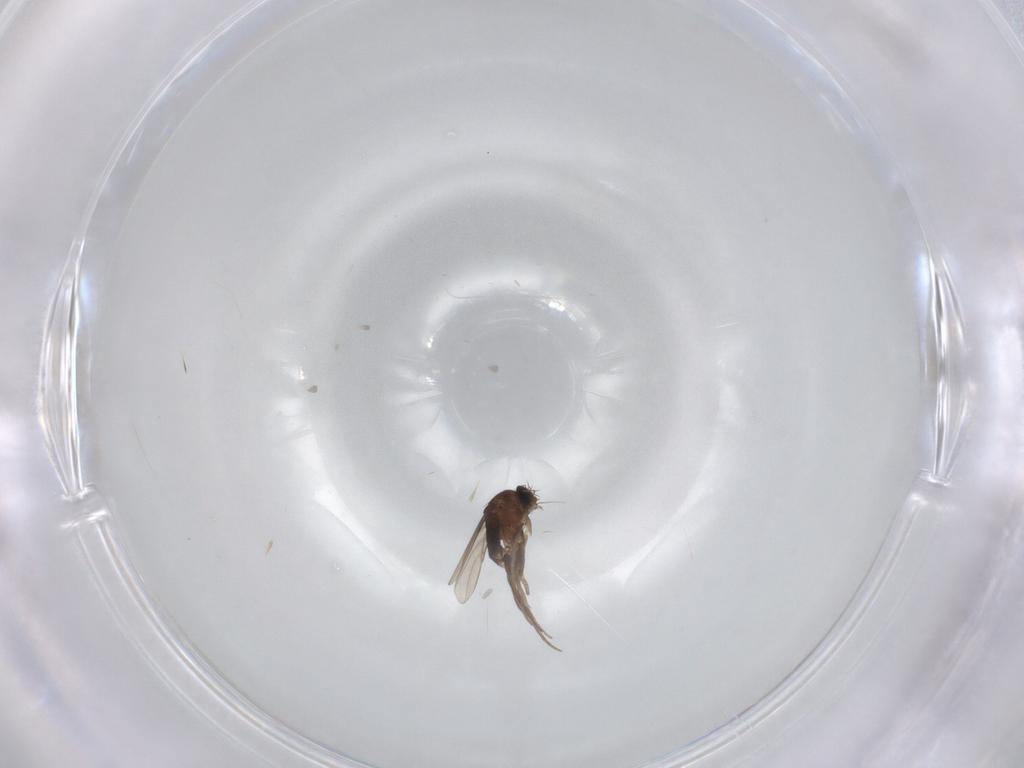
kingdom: Animalia
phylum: Arthropoda
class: Insecta
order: Diptera
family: Phoridae
